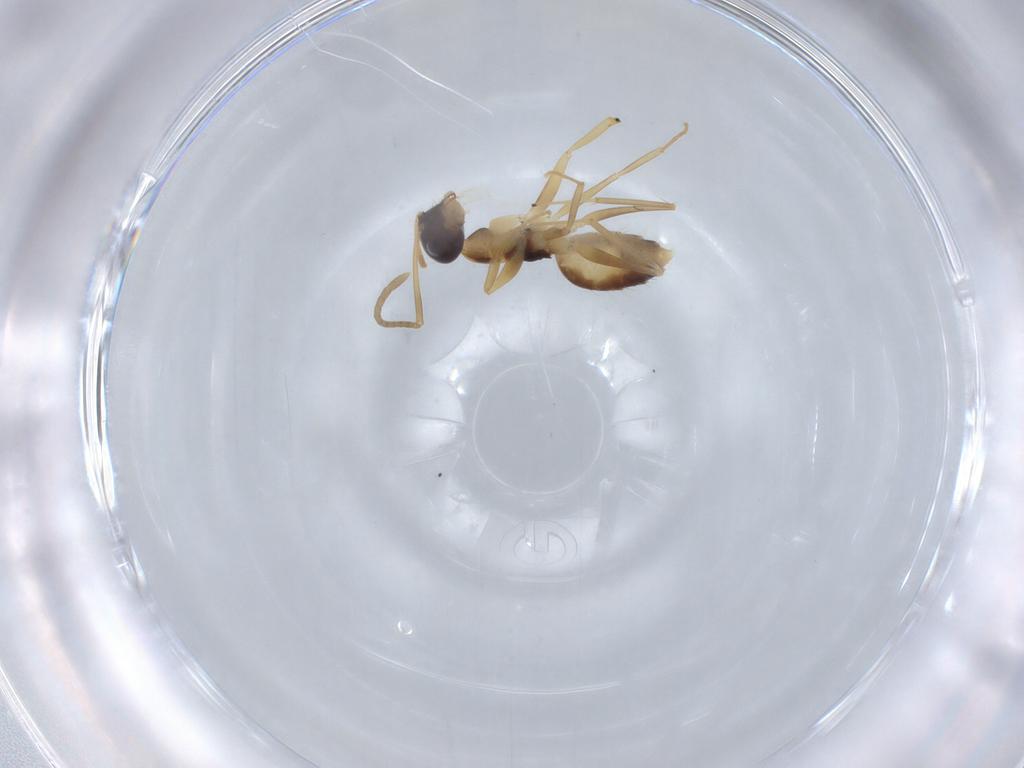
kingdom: Animalia
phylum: Arthropoda
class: Insecta
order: Hymenoptera
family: Formicidae
